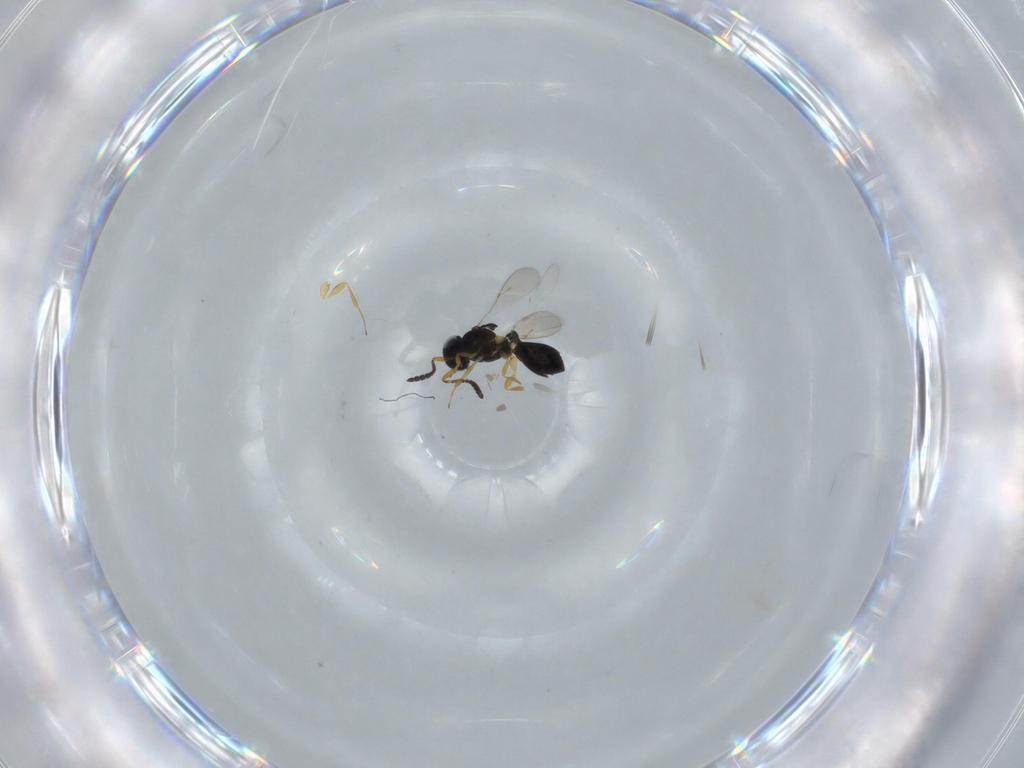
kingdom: Animalia
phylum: Arthropoda
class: Insecta
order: Hymenoptera
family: Scelionidae
